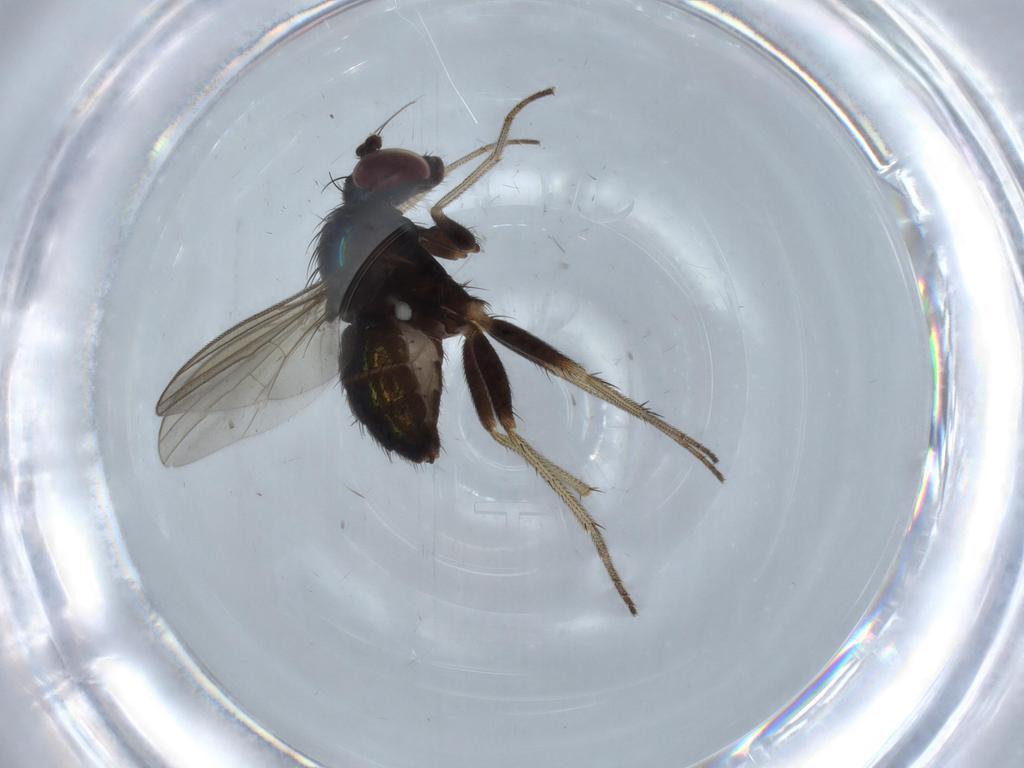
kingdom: Animalia
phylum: Arthropoda
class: Insecta
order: Diptera
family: Dolichopodidae
